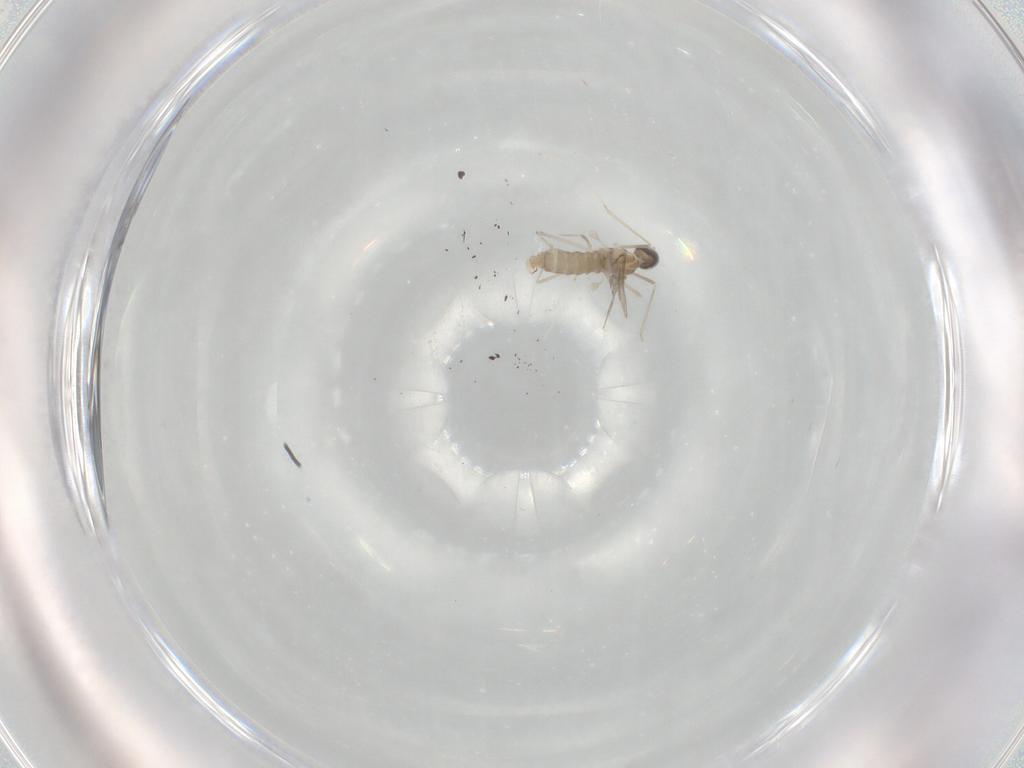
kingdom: Animalia
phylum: Arthropoda
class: Insecta
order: Diptera
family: Cecidomyiidae
